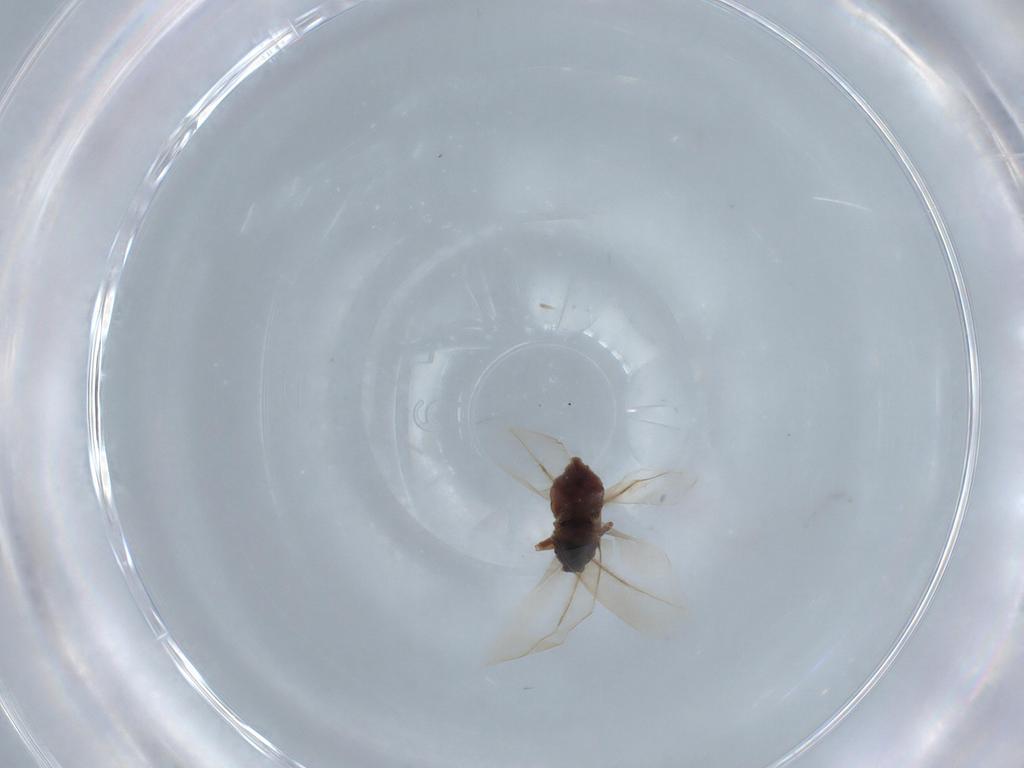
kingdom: Animalia
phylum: Arthropoda
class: Insecta
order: Hemiptera
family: Aleyrodidae
